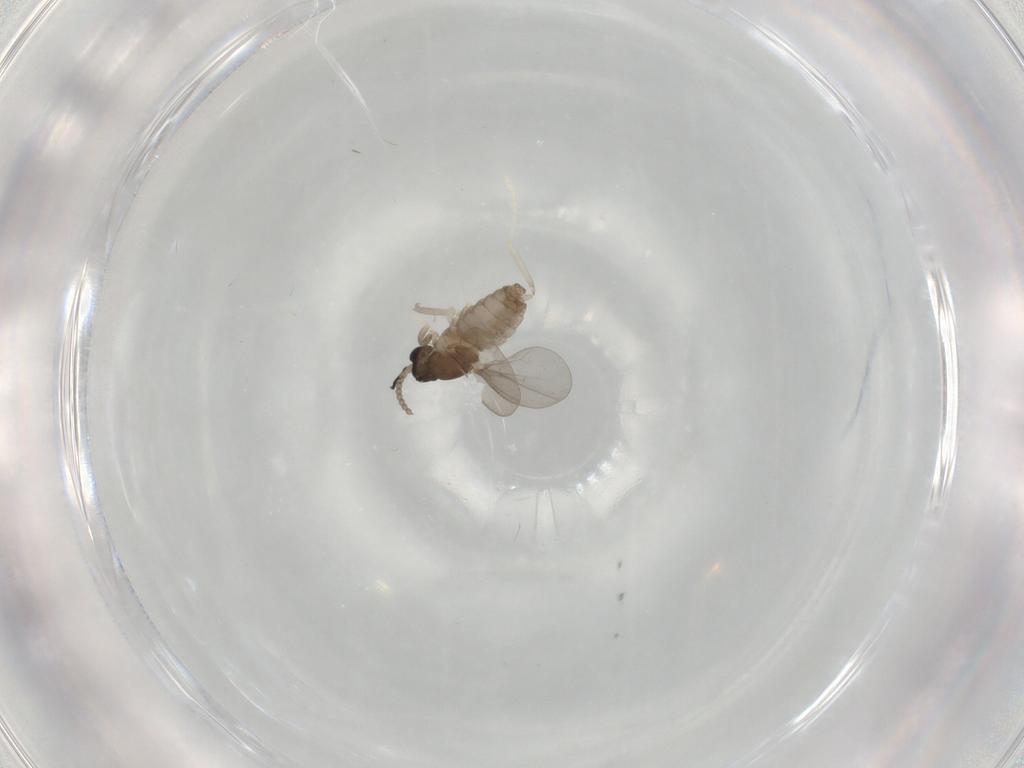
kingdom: Animalia
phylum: Arthropoda
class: Insecta
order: Diptera
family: Cecidomyiidae
